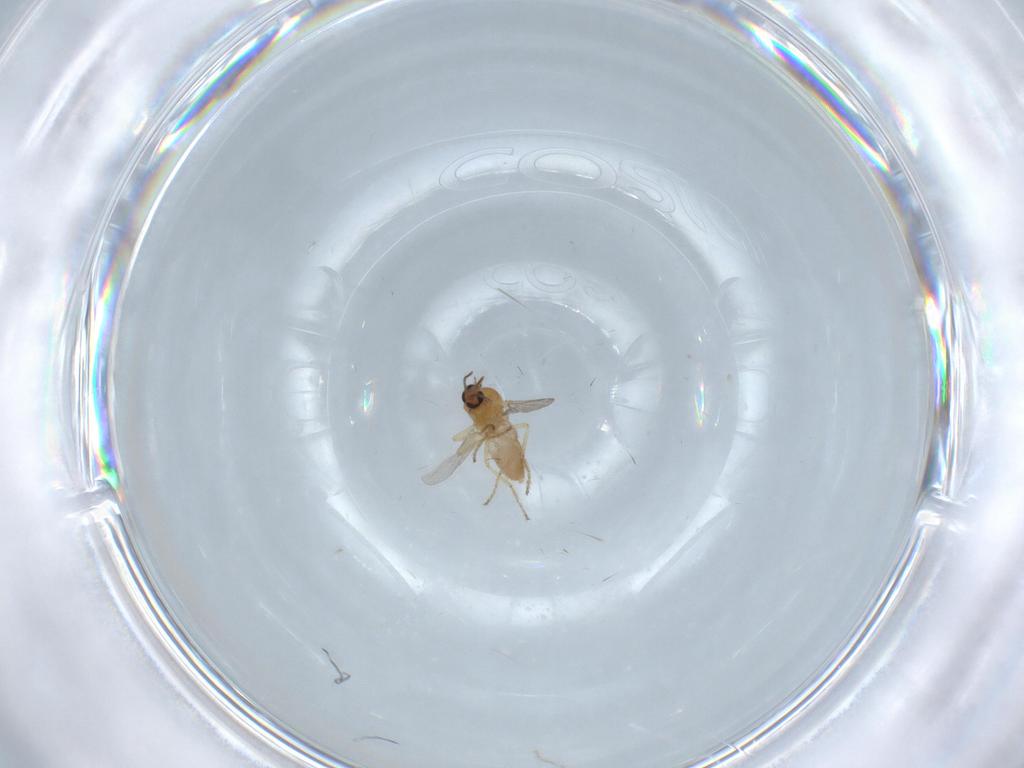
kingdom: Animalia
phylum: Arthropoda
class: Insecta
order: Diptera
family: Ceratopogonidae
